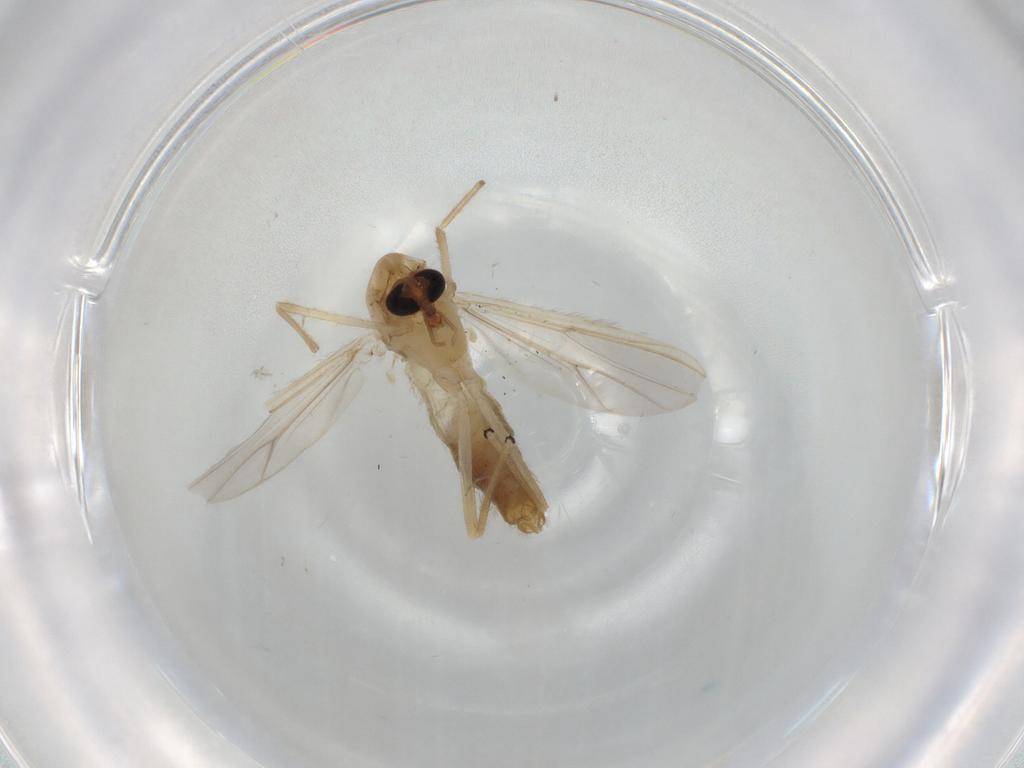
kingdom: Animalia
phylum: Arthropoda
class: Insecta
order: Diptera
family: Chironomidae
